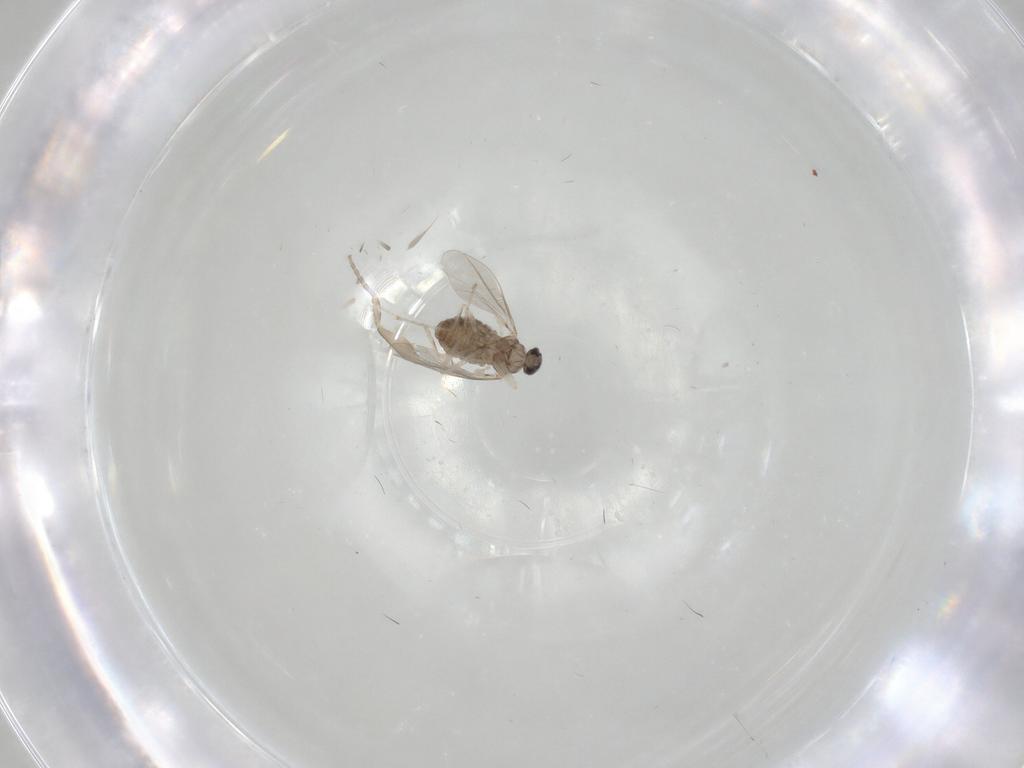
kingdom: Animalia
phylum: Arthropoda
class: Insecta
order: Diptera
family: Phoridae
